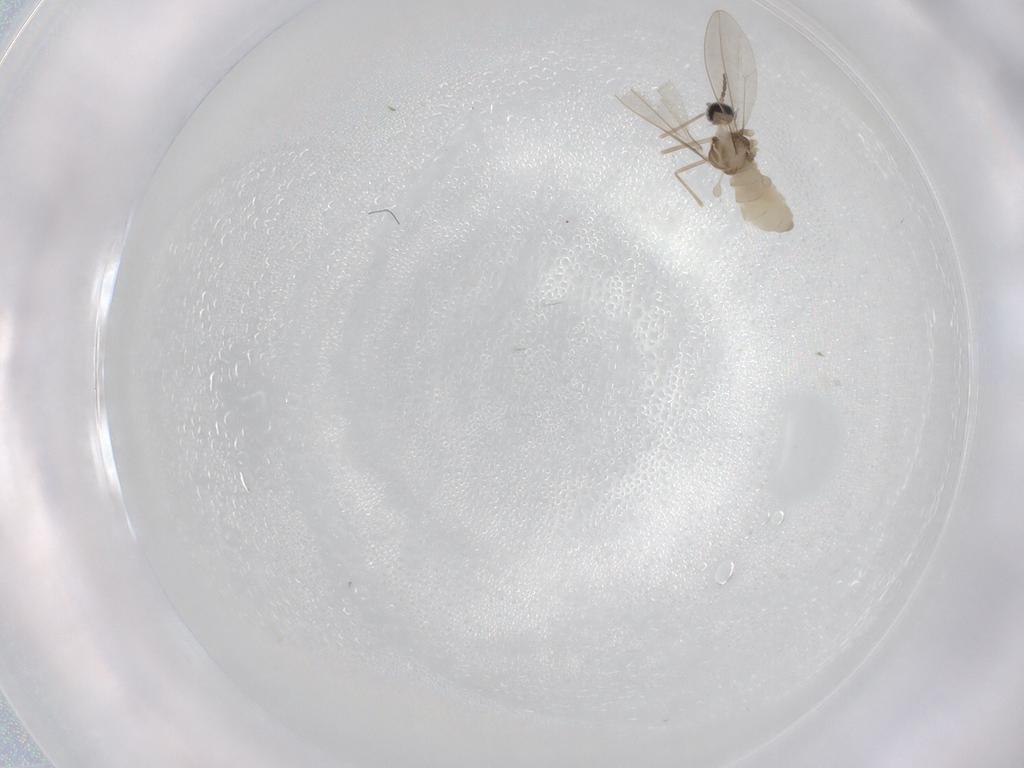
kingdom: Animalia
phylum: Arthropoda
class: Insecta
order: Diptera
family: Cecidomyiidae
